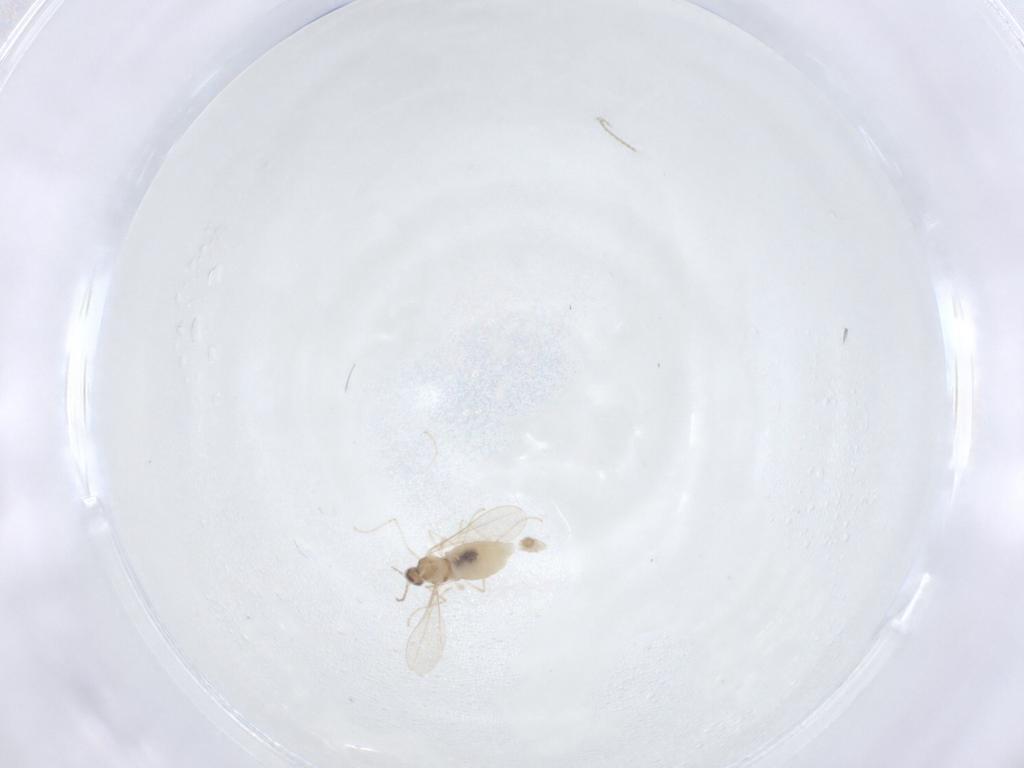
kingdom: Animalia
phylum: Arthropoda
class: Insecta
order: Diptera
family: Cecidomyiidae
